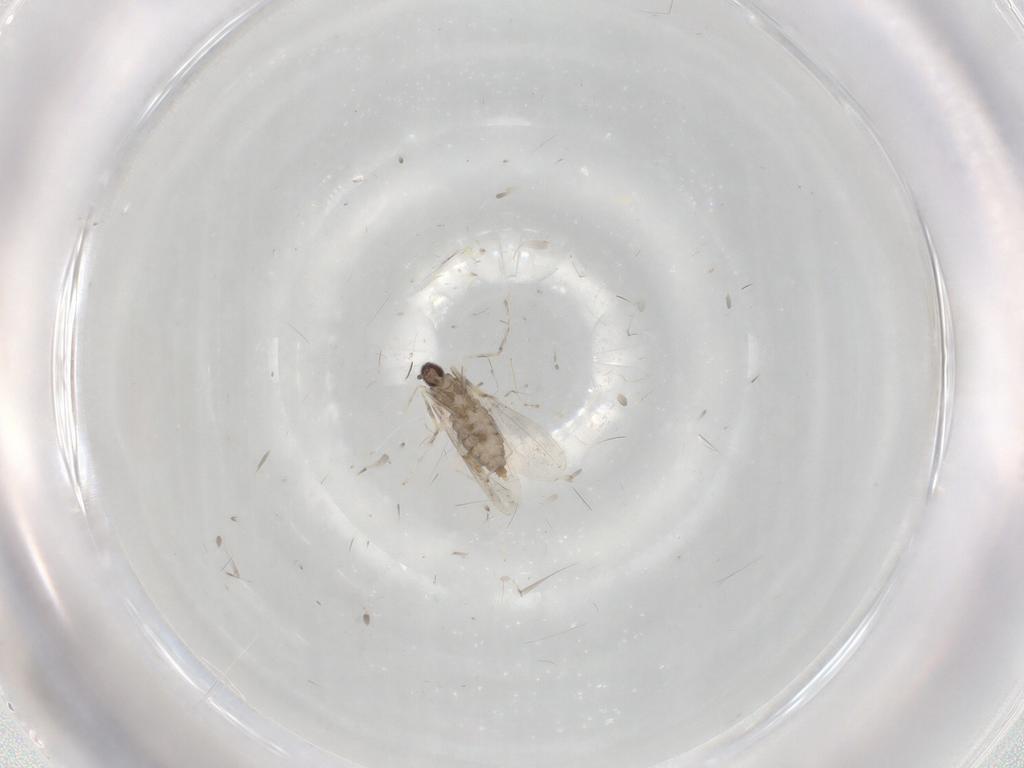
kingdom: Animalia
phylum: Arthropoda
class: Insecta
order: Diptera
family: Cecidomyiidae
